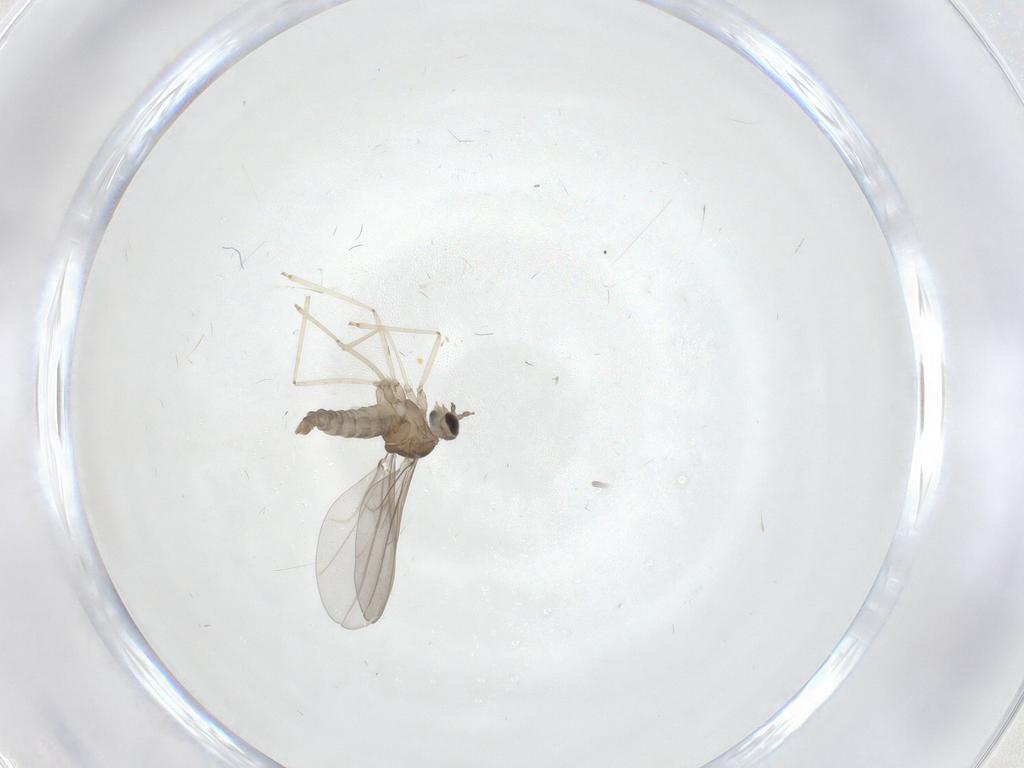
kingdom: Animalia
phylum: Arthropoda
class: Insecta
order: Diptera
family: Cecidomyiidae
